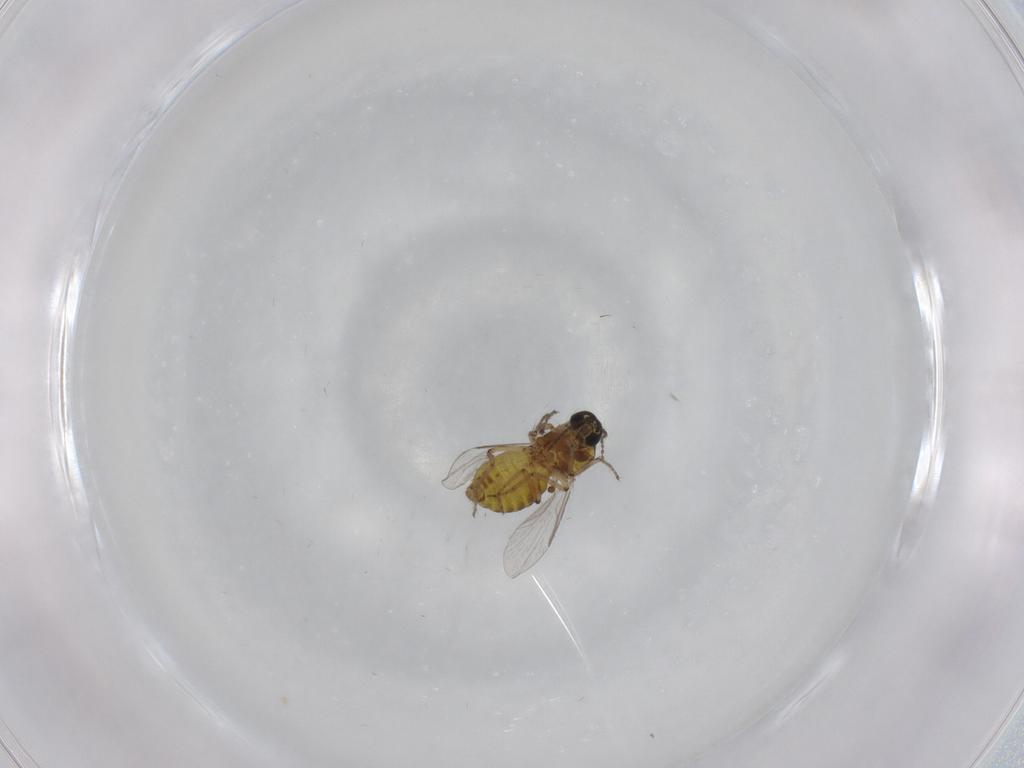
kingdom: Animalia
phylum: Arthropoda
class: Insecta
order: Diptera
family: Ceratopogonidae
